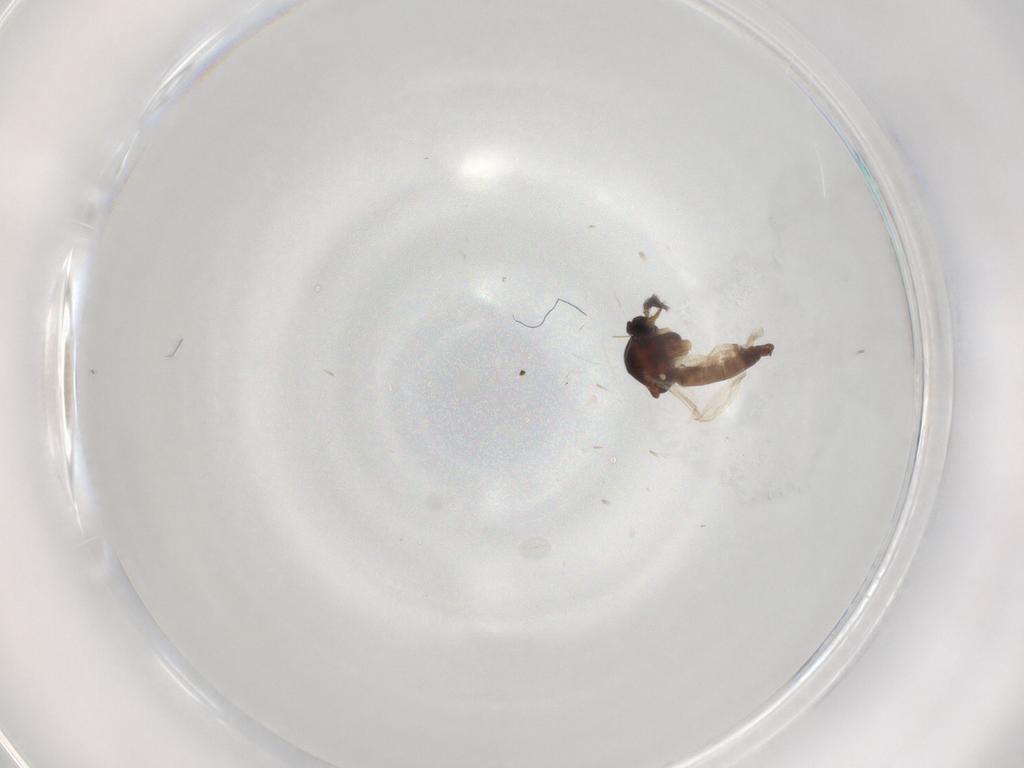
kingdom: Animalia
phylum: Arthropoda
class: Insecta
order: Diptera
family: Ceratopogonidae
